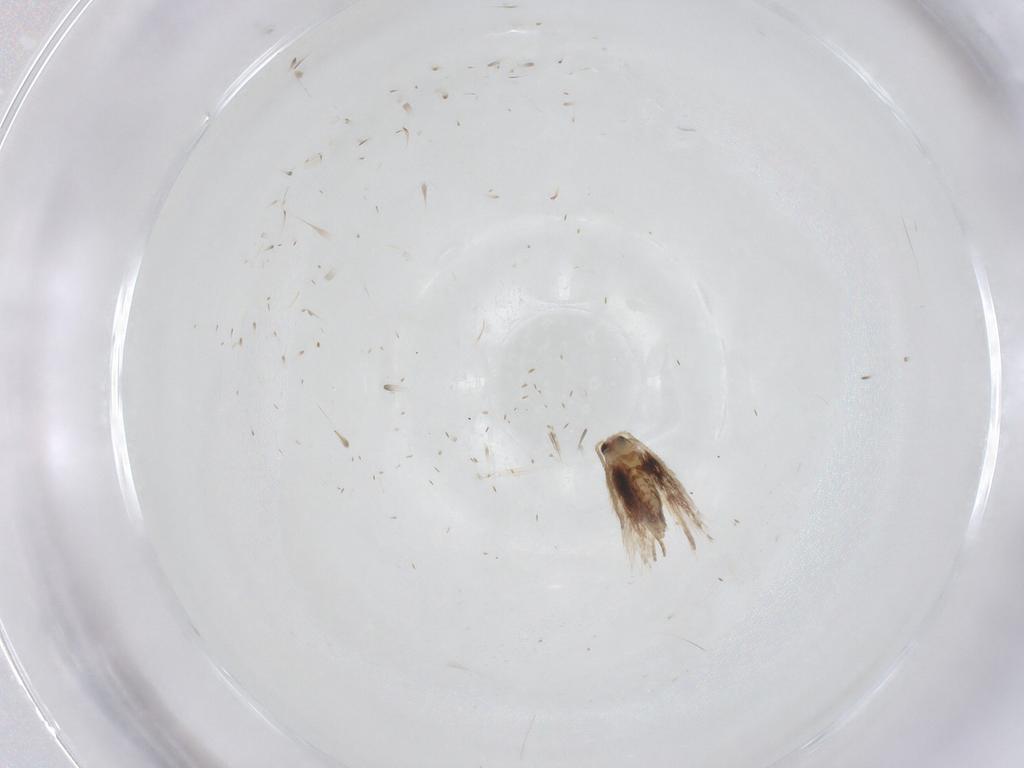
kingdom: Animalia
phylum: Arthropoda
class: Insecta
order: Lepidoptera
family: Nepticulidae
